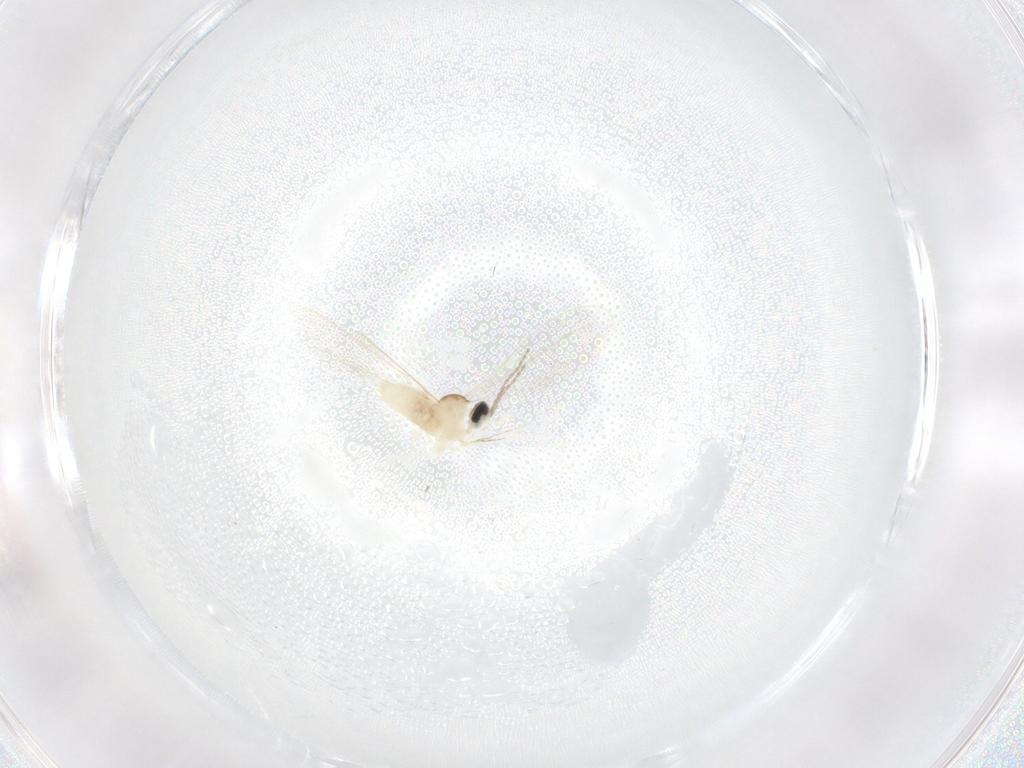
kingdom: Animalia
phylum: Arthropoda
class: Insecta
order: Diptera
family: Cecidomyiidae
